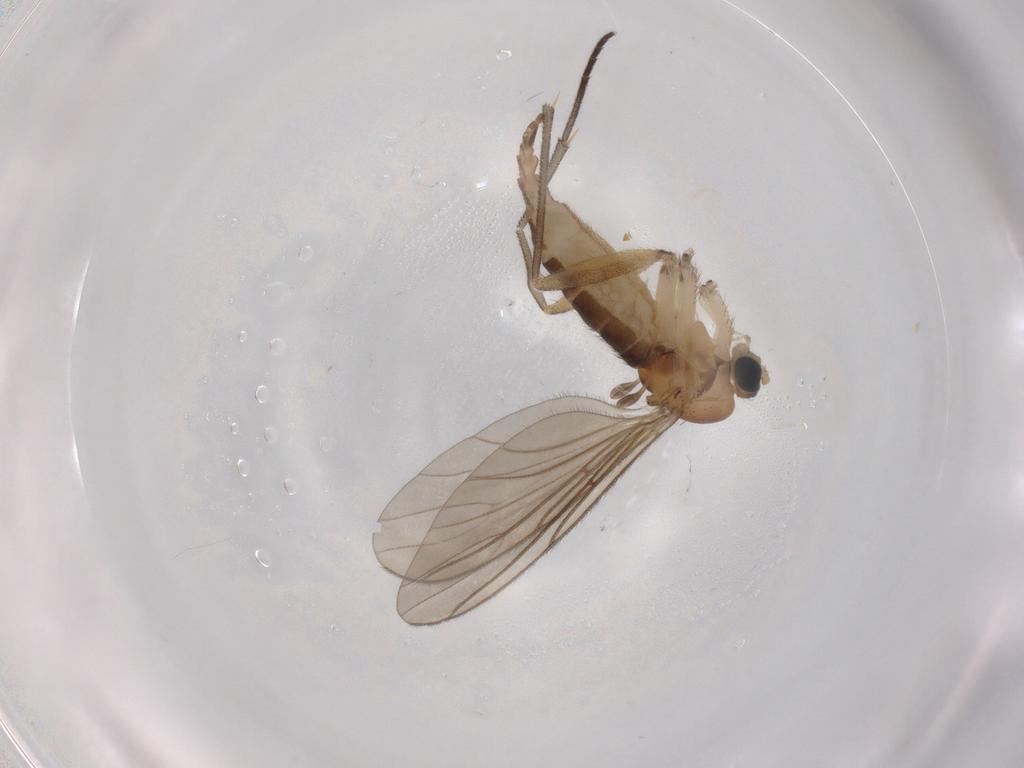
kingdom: Animalia
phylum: Arthropoda
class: Insecta
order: Diptera
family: Sciaridae
